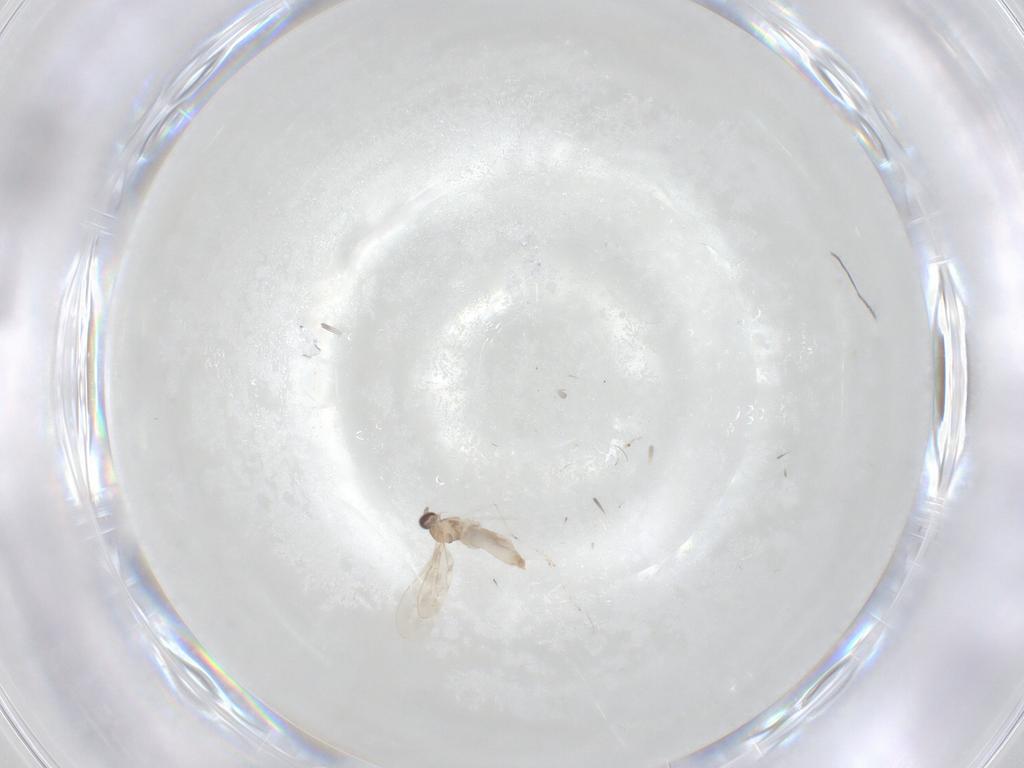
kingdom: Animalia
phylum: Arthropoda
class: Insecta
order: Diptera
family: Cecidomyiidae
